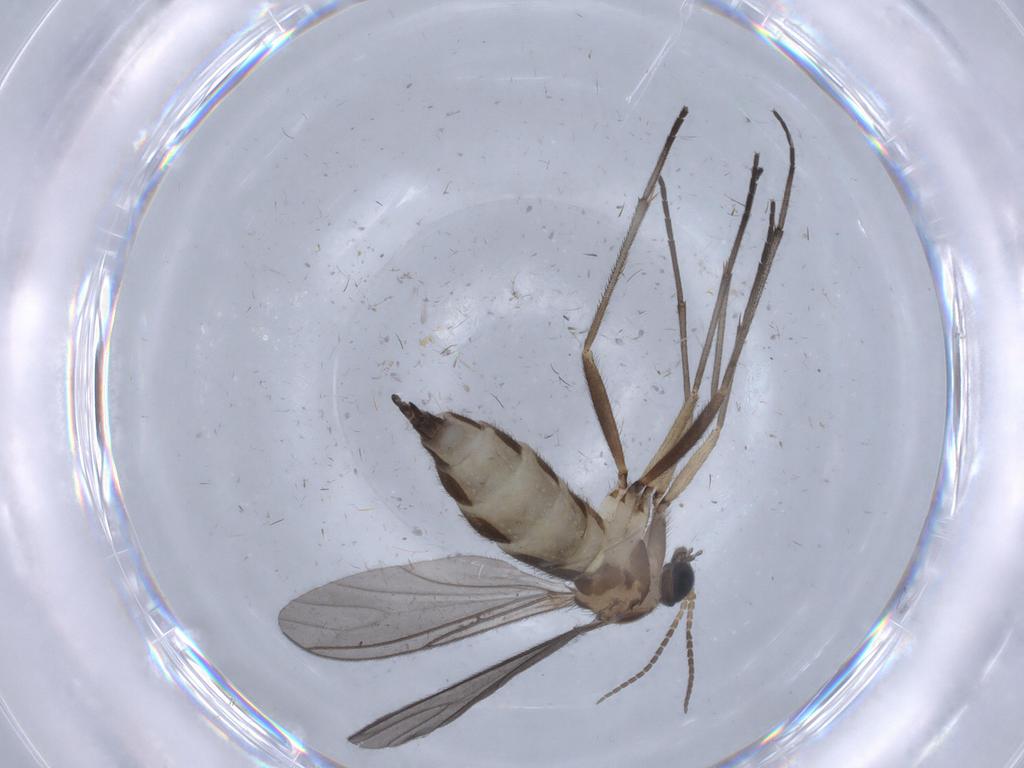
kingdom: Animalia
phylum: Arthropoda
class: Insecta
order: Diptera
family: Sciaridae
